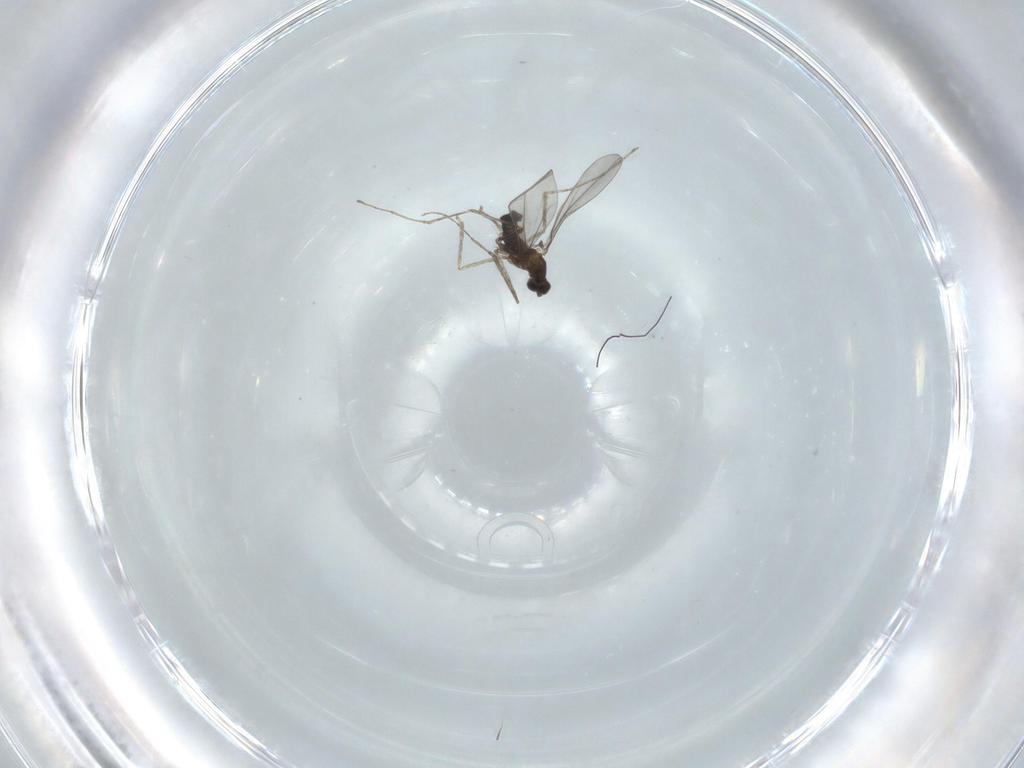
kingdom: Animalia
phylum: Arthropoda
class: Insecta
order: Diptera
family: Cecidomyiidae
